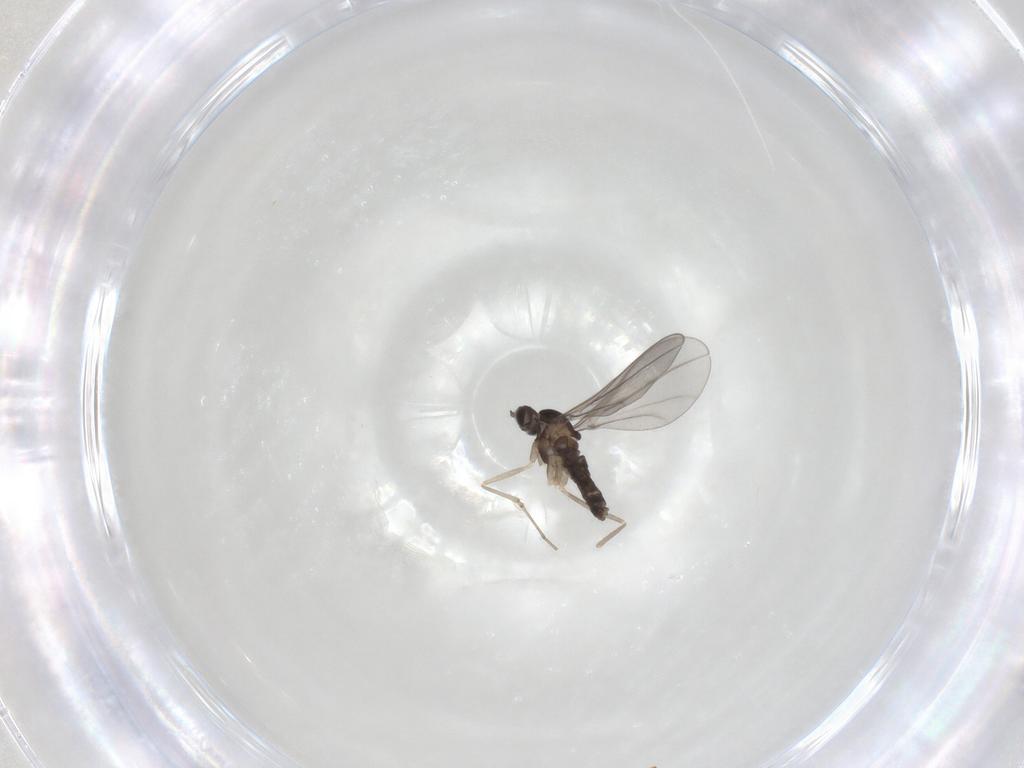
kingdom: Animalia
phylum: Arthropoda
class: Insecta
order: Diptera
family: Cecidomyiidae
